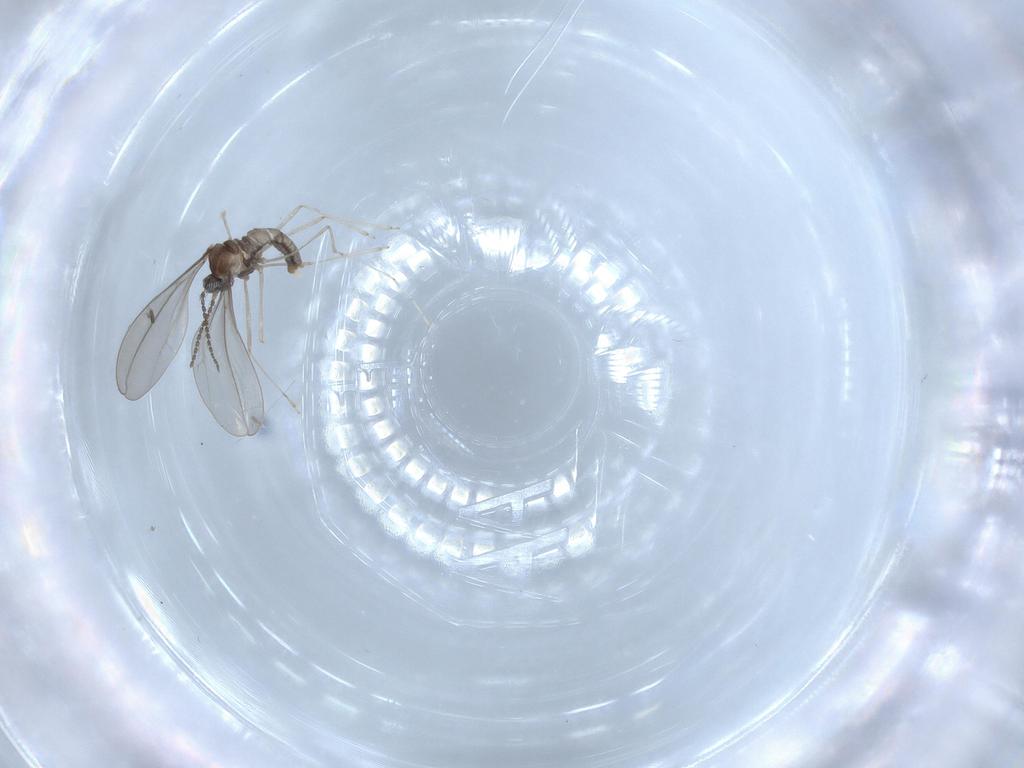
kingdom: Animalia
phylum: Arthropoda
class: Insecta
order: Diptera
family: Cecidomyiidae
